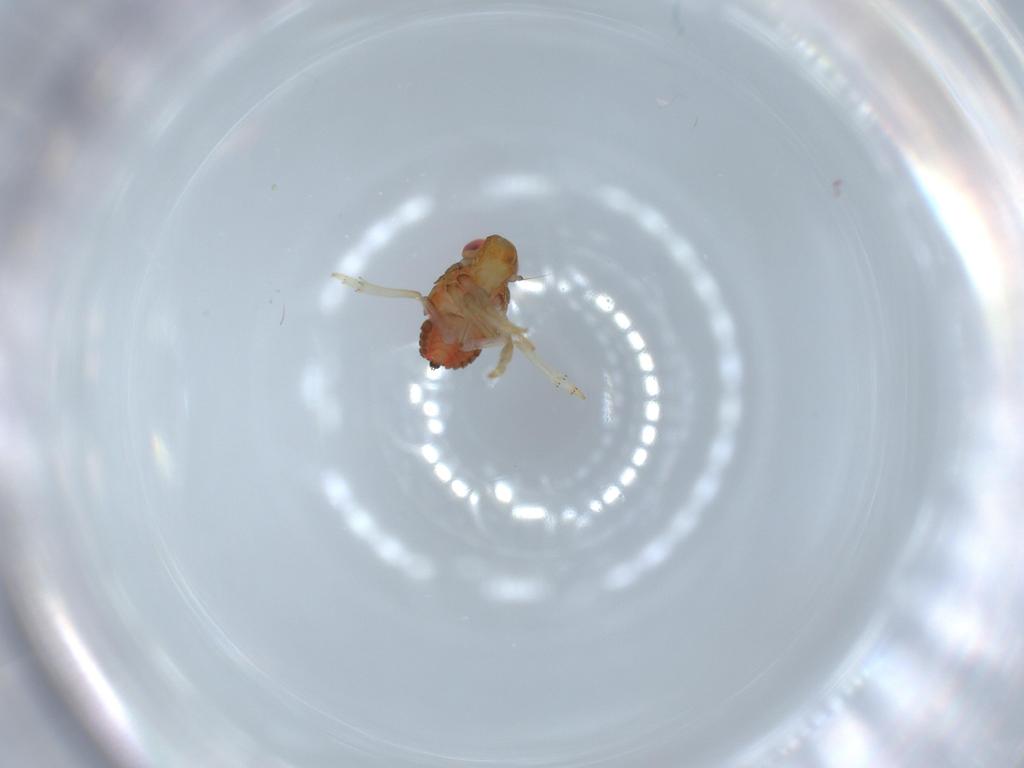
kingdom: Animalia
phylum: Arthropoda
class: Insecta
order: Hemiptera
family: Issidae
